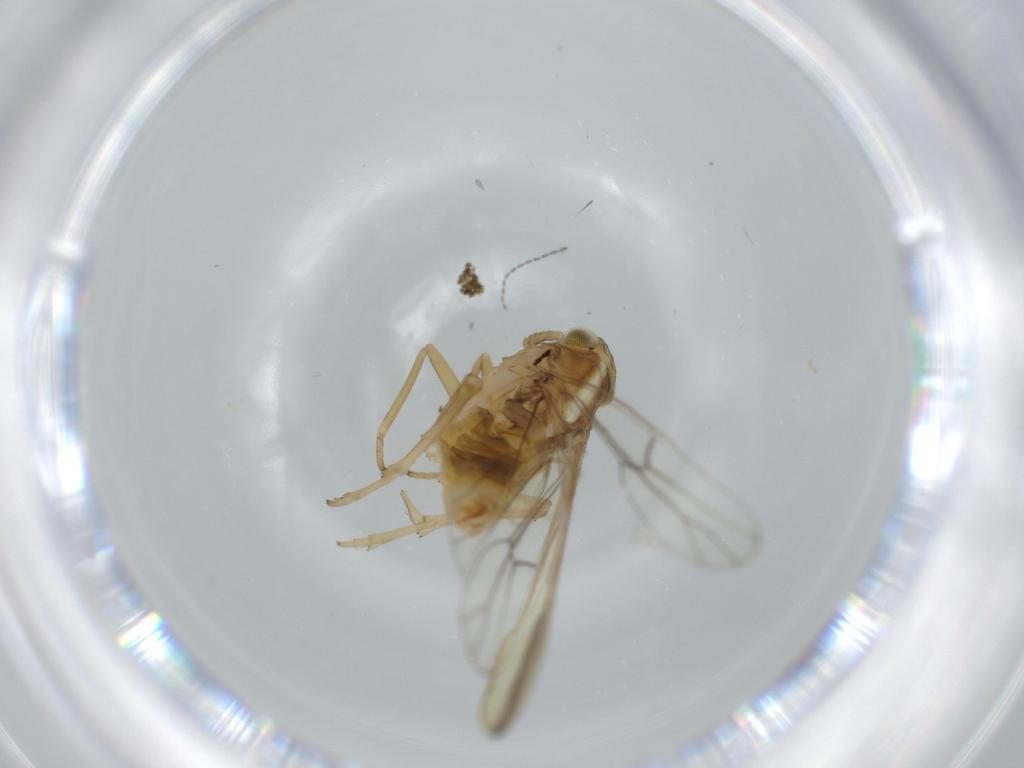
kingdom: Animalia
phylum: Arthropoda
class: Insecta
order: Hemiptera
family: Delphacidae
